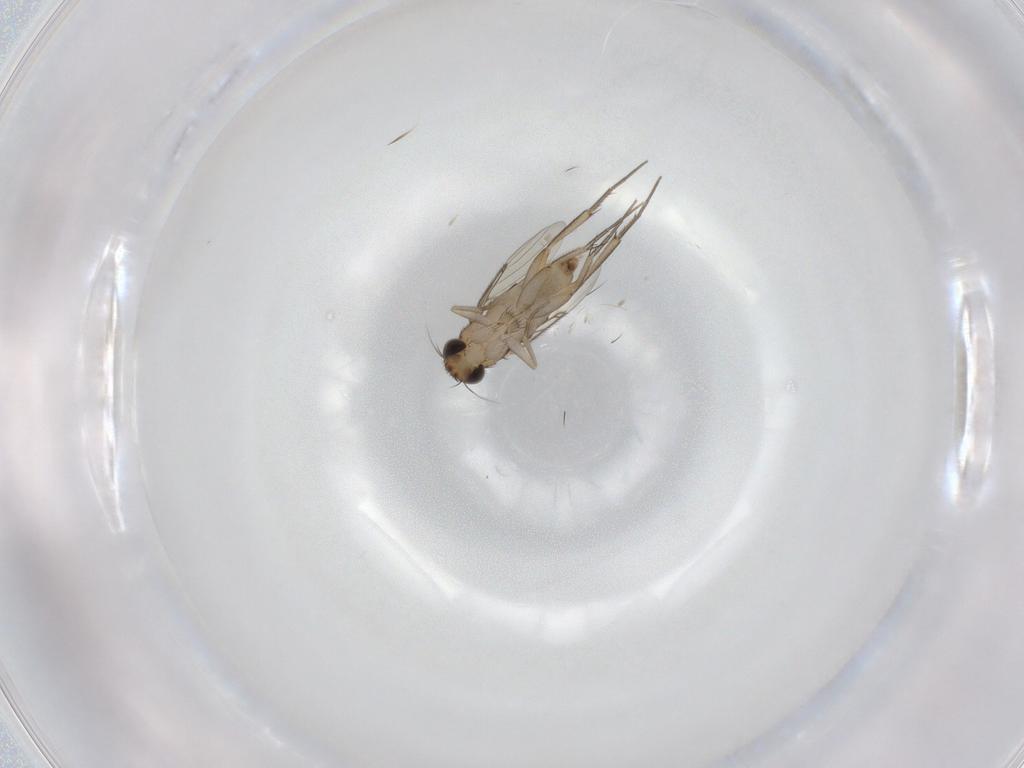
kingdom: Animalia
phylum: Arthropoda
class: Insecta
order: Diptera
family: Phoridae
